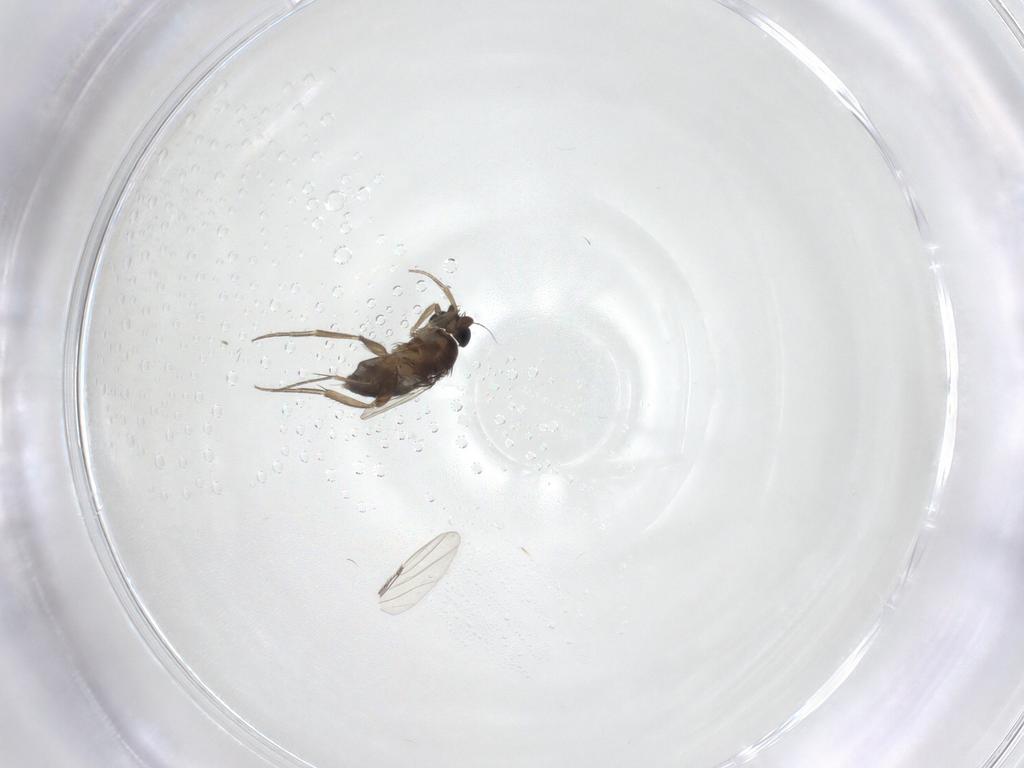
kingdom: Animalia
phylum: Arthropoda
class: Insecta
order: Diptera
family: Phoridae
